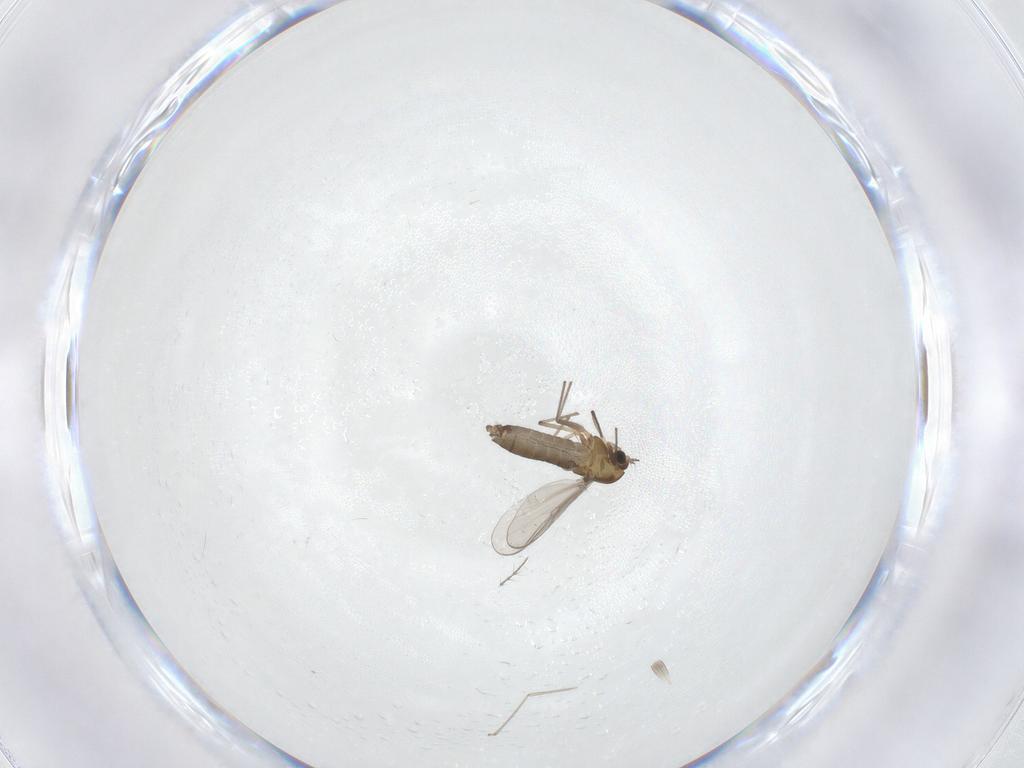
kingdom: Animalia
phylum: Arthropoda
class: Insecta
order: Diptera
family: Chironomidae
